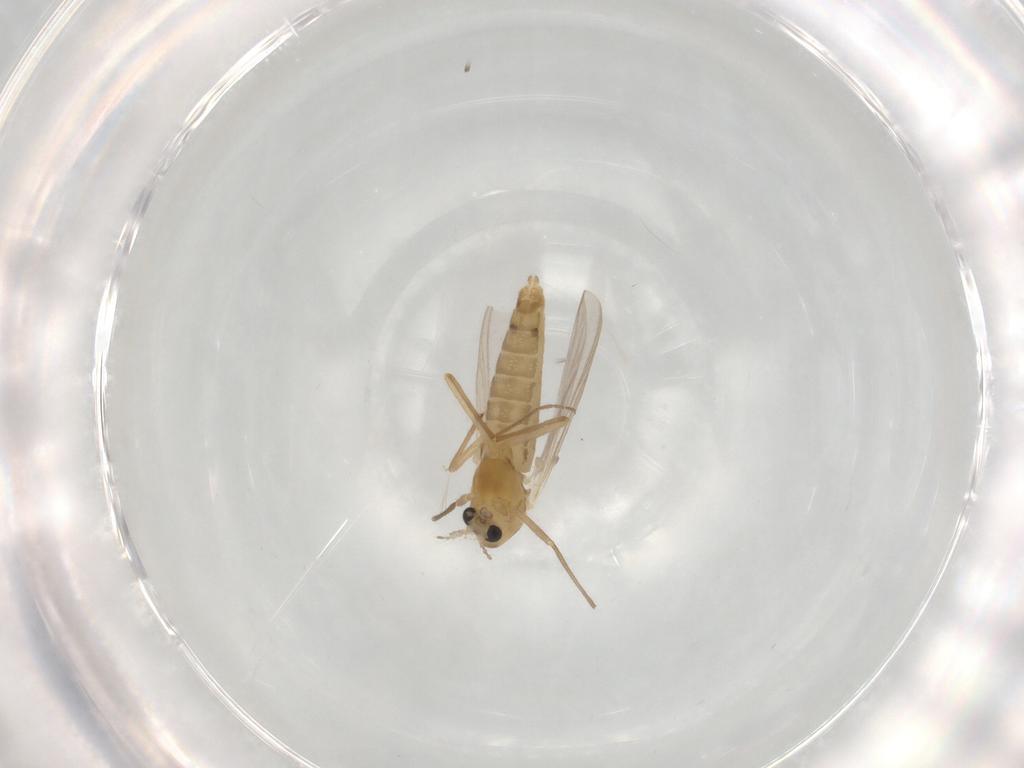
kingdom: Animalia
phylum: Arthropoda
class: Insecta
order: Diptera
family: Chironomidae
